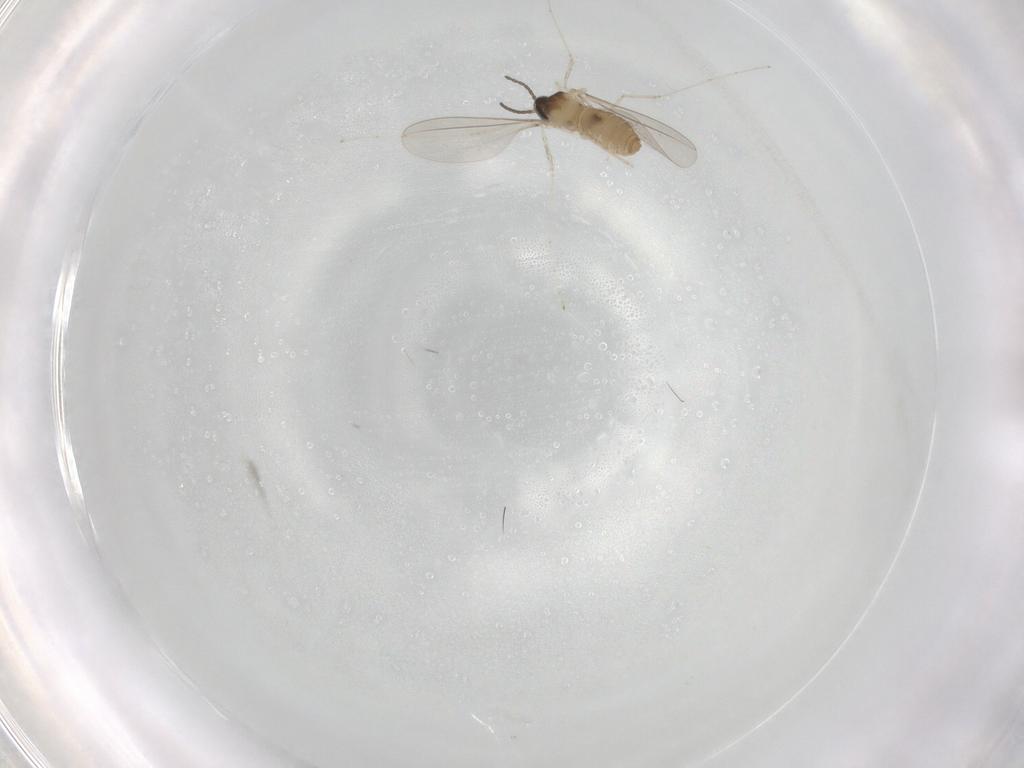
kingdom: Animalia
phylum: Arthropoda
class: Insecta
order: Diptera
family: Cecidomyiidae
